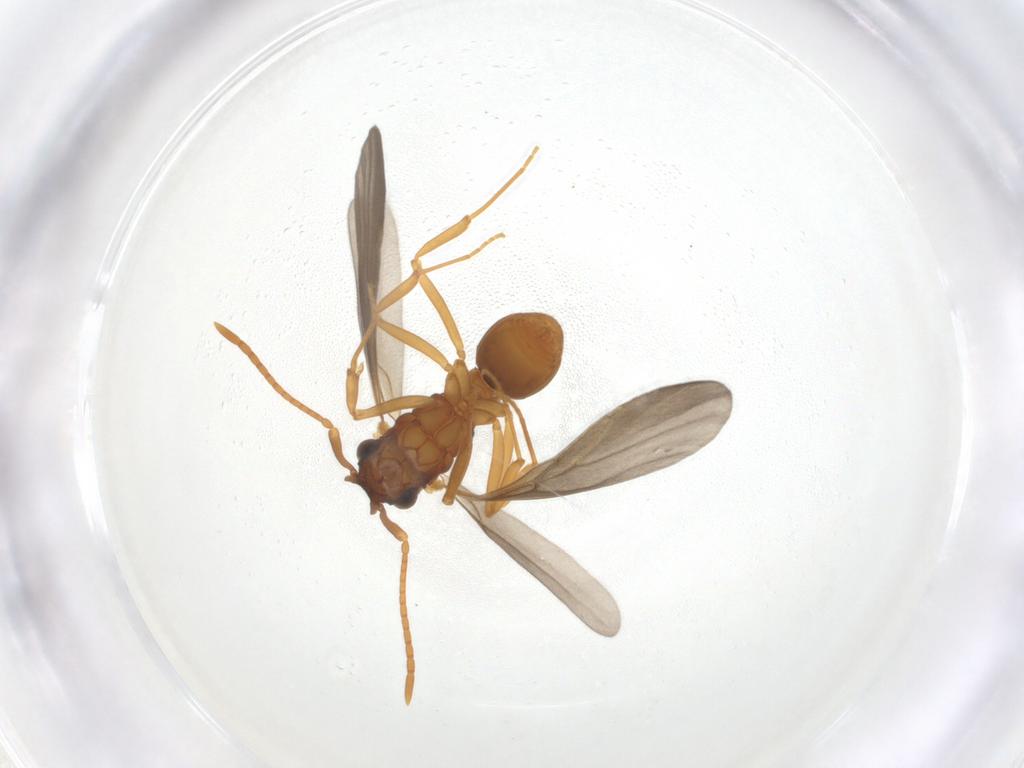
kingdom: Animalia
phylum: Arthropoda
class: Insecta
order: Hymenoptera
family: Formicidae
